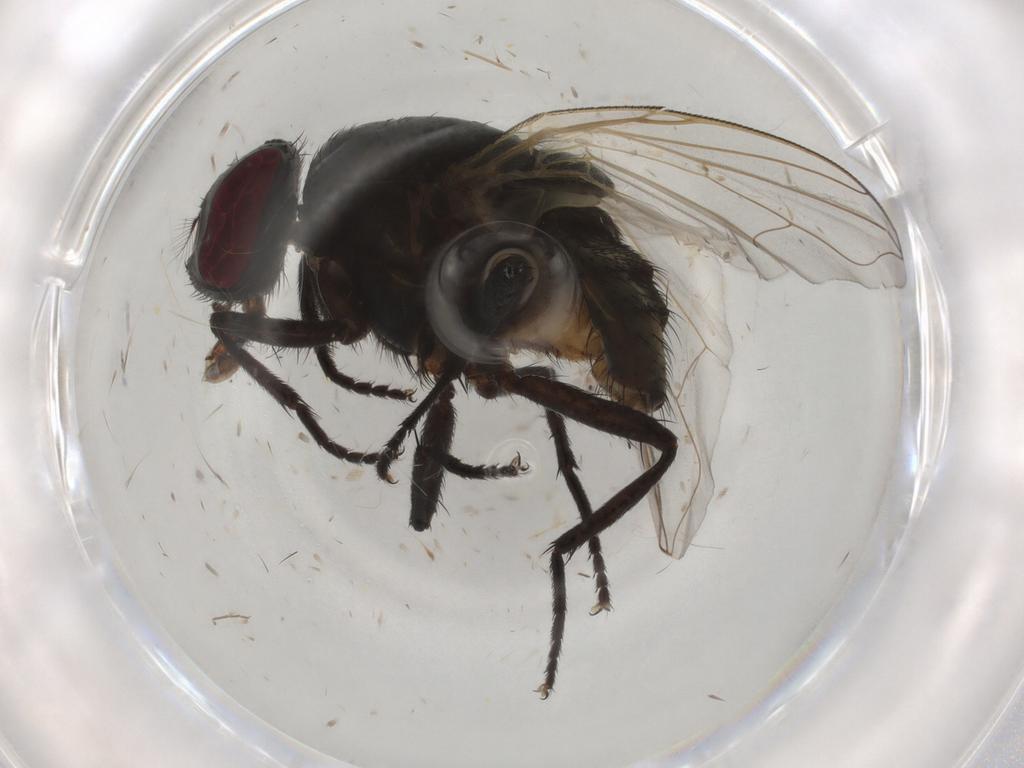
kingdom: Animalia
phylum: Arthropoda
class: Insecta
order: Diptera
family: Muscidae
